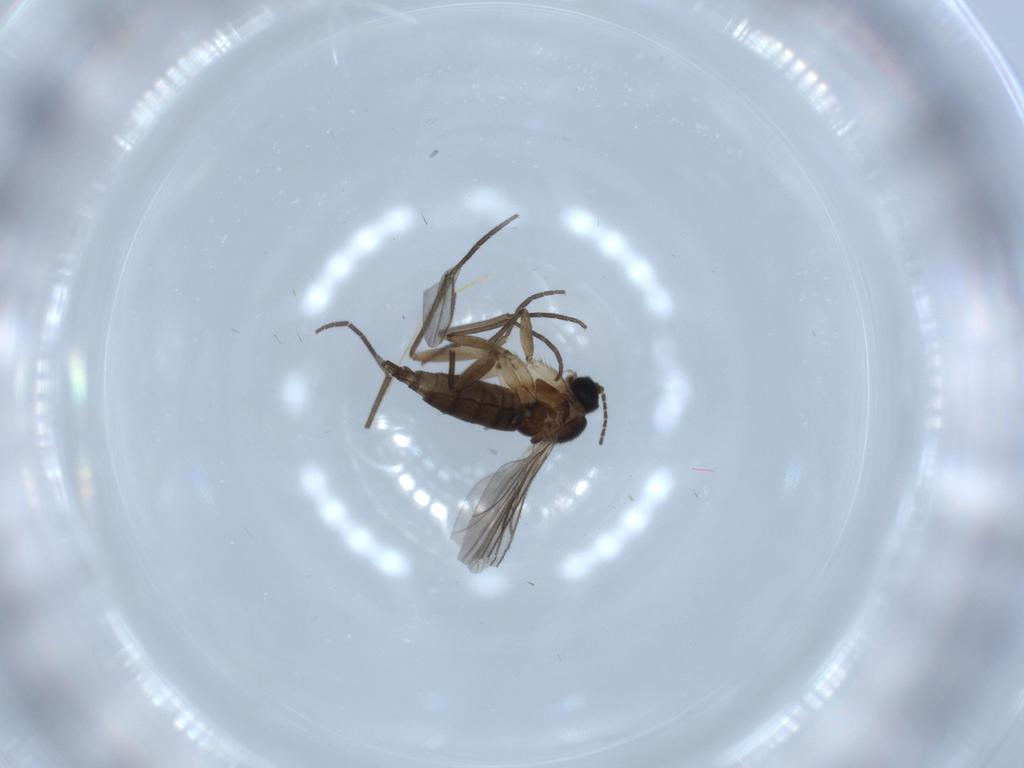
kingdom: Animalia
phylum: Arthropoda
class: Insecta
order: Diptera
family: Sciaridae
